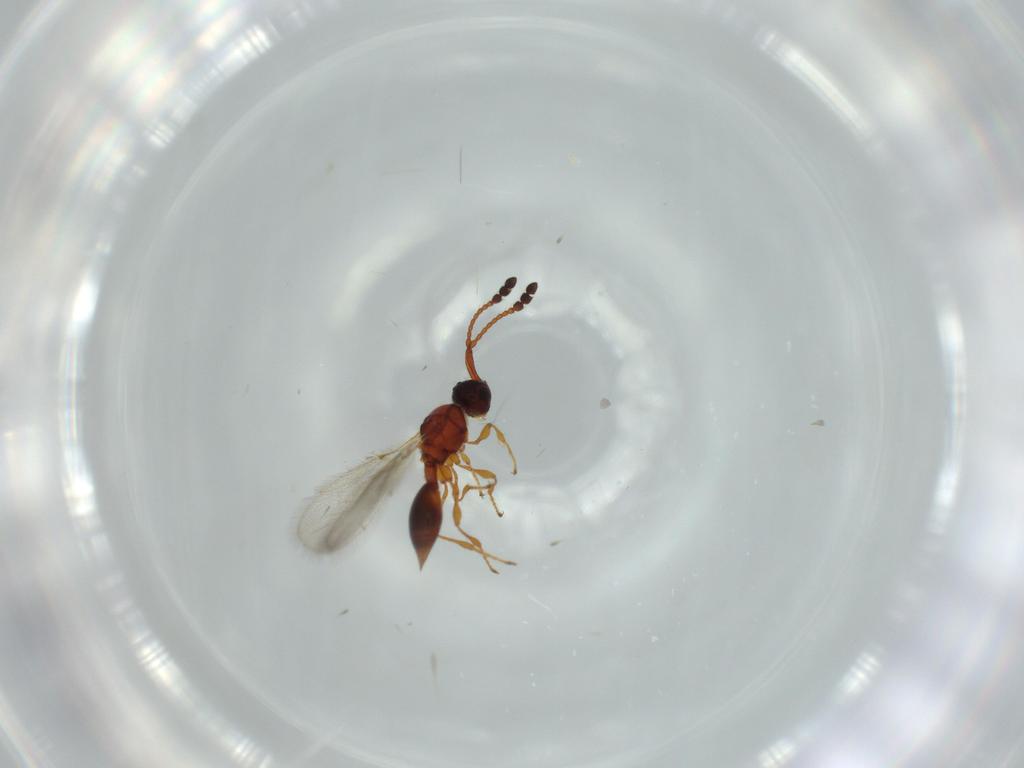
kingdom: Animalia
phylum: Arthropoda
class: Insecta
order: Hymenoptera
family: Diapriidae
